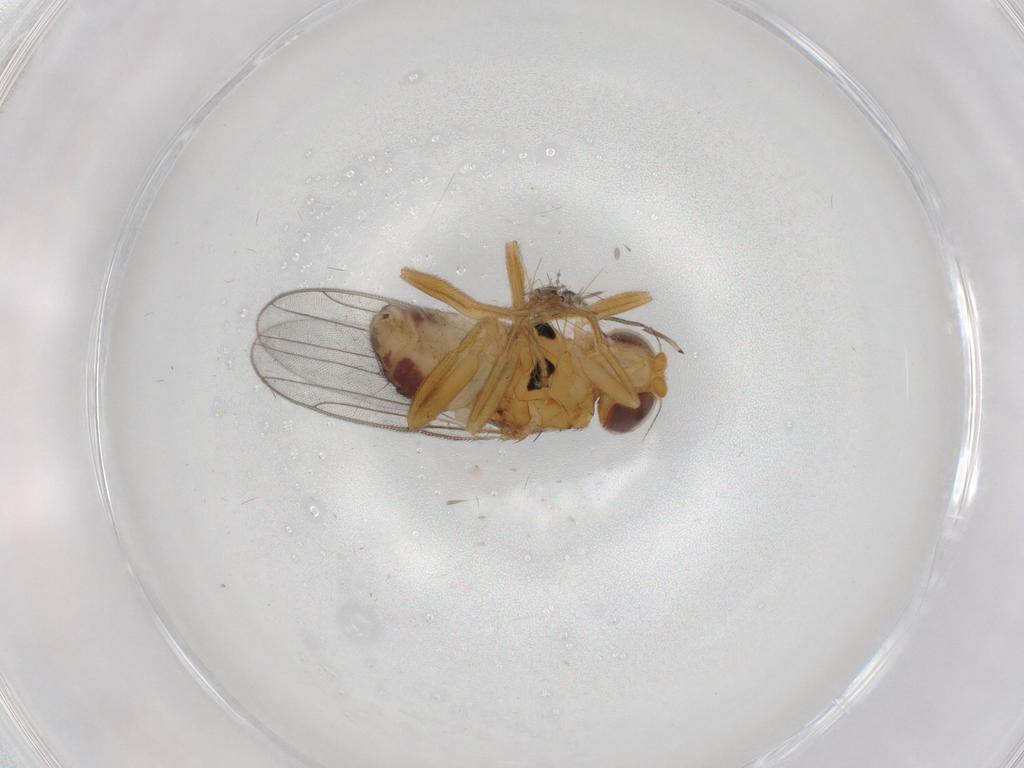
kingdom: Animalia
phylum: Arthropoda
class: Insecta
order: Diptera
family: Chloropidae
